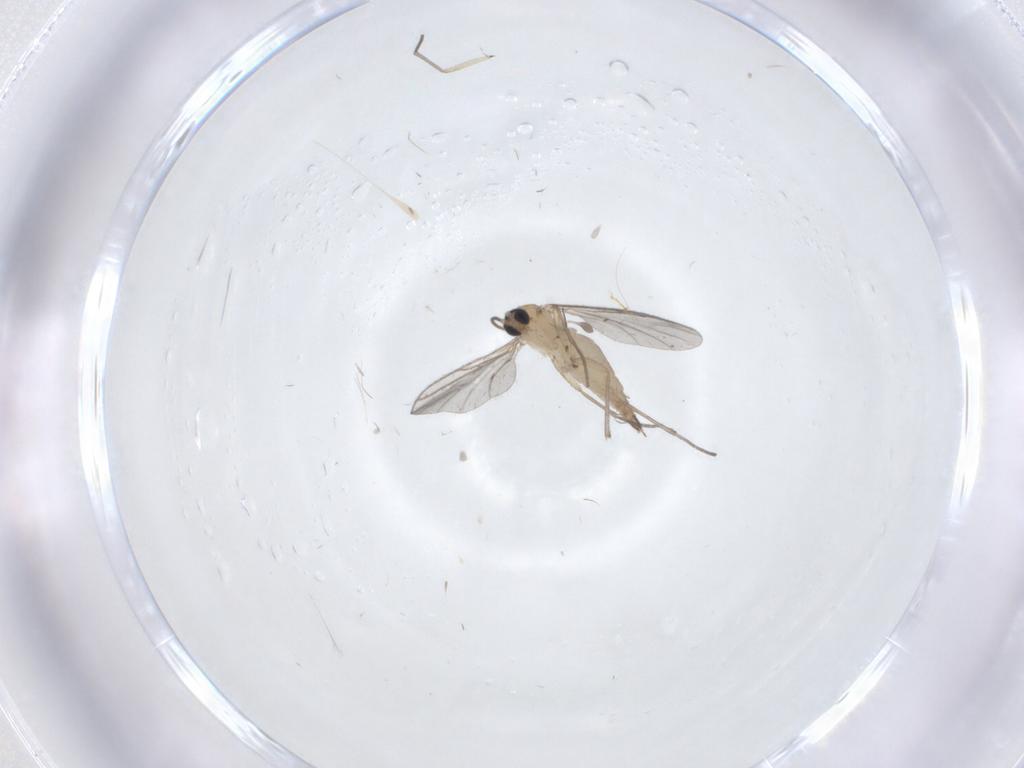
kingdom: Animalia
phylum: Arthropoda
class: Insecta
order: Diptera
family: Sciaridae
